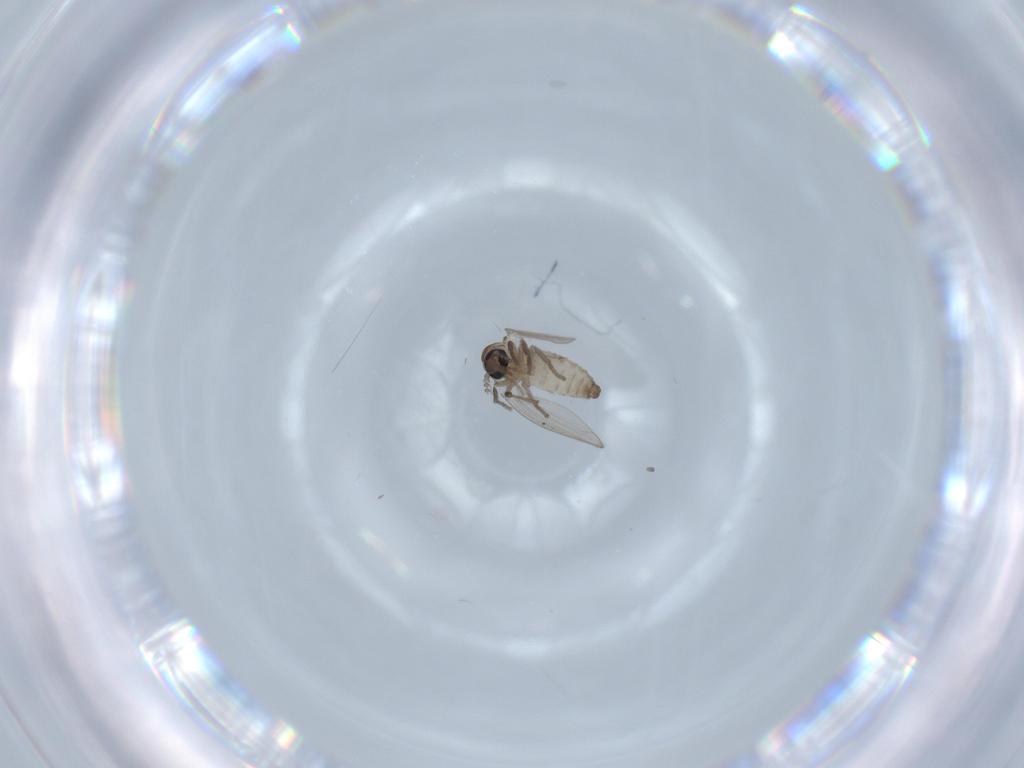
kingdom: Animalia
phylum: Arthropoda
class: Insecta
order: Diptera
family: Psychodidae
